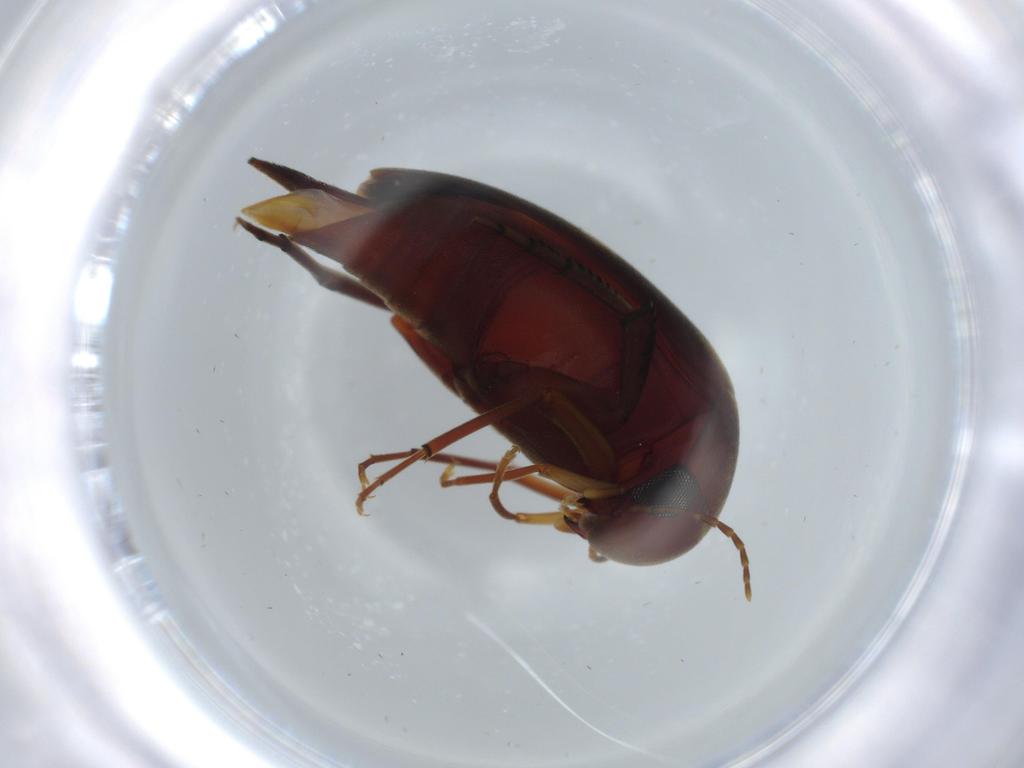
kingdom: Animalia
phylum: Arthropoda
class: Insecta
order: Coleoptera
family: Mordellidae
